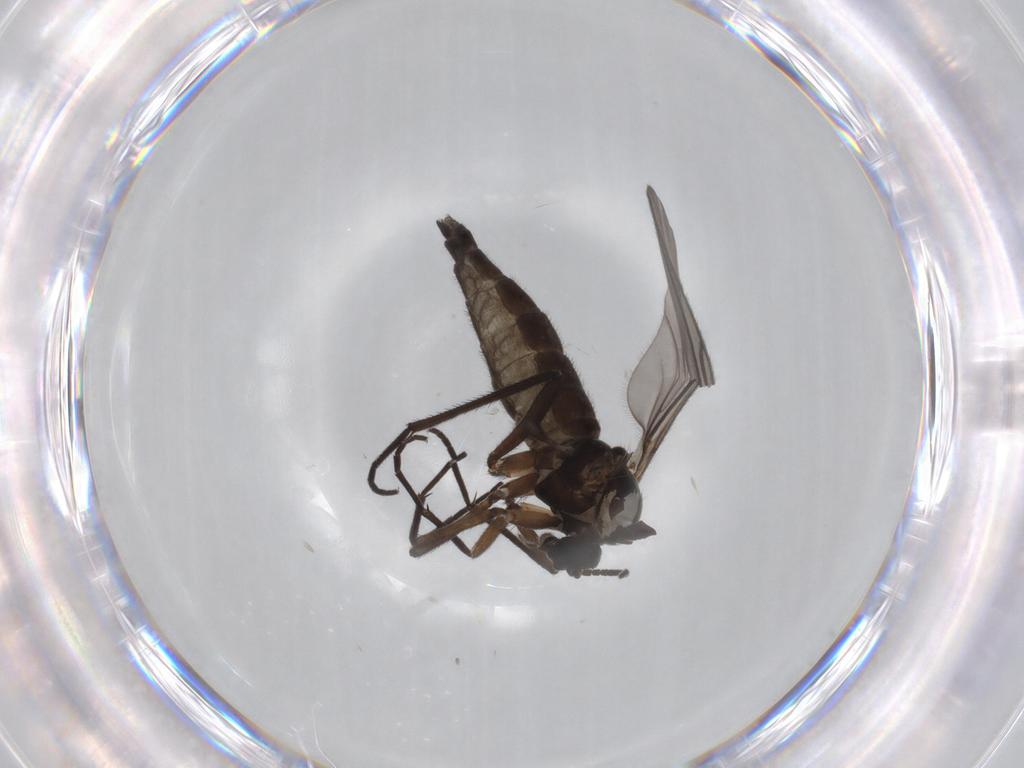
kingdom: Animalia
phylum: Arthropoda
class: Insecta
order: Diptera
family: Sciaridae
